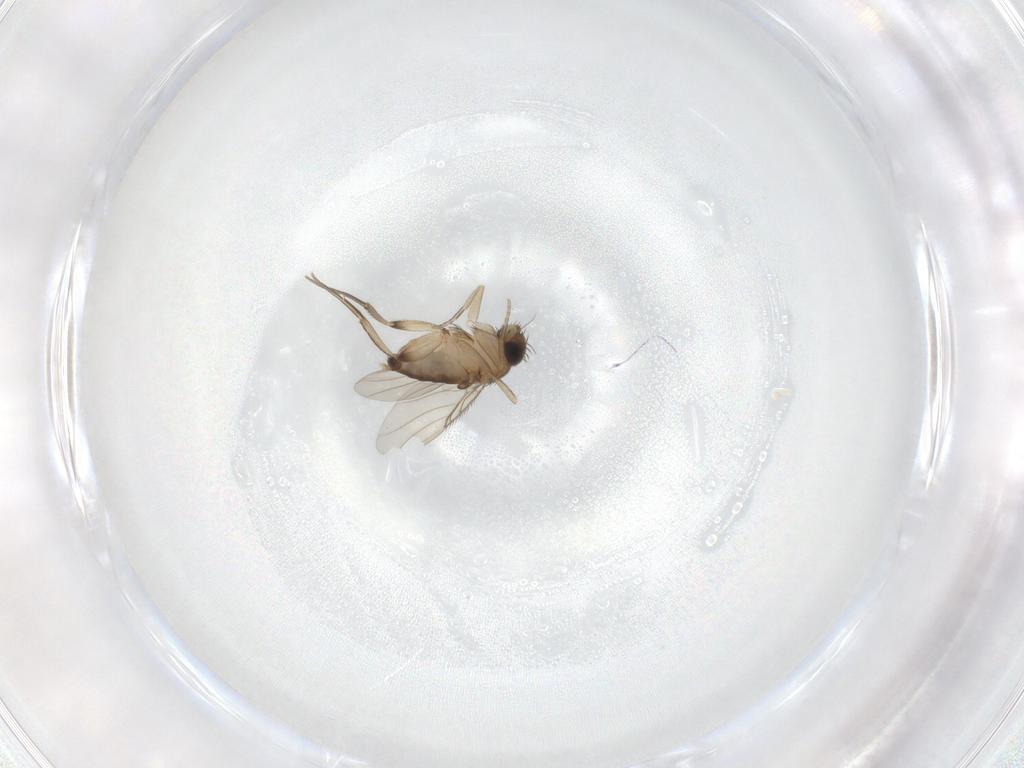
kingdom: Animalia
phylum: Arthropoda
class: Insecta
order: Diptera
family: Phoridae
